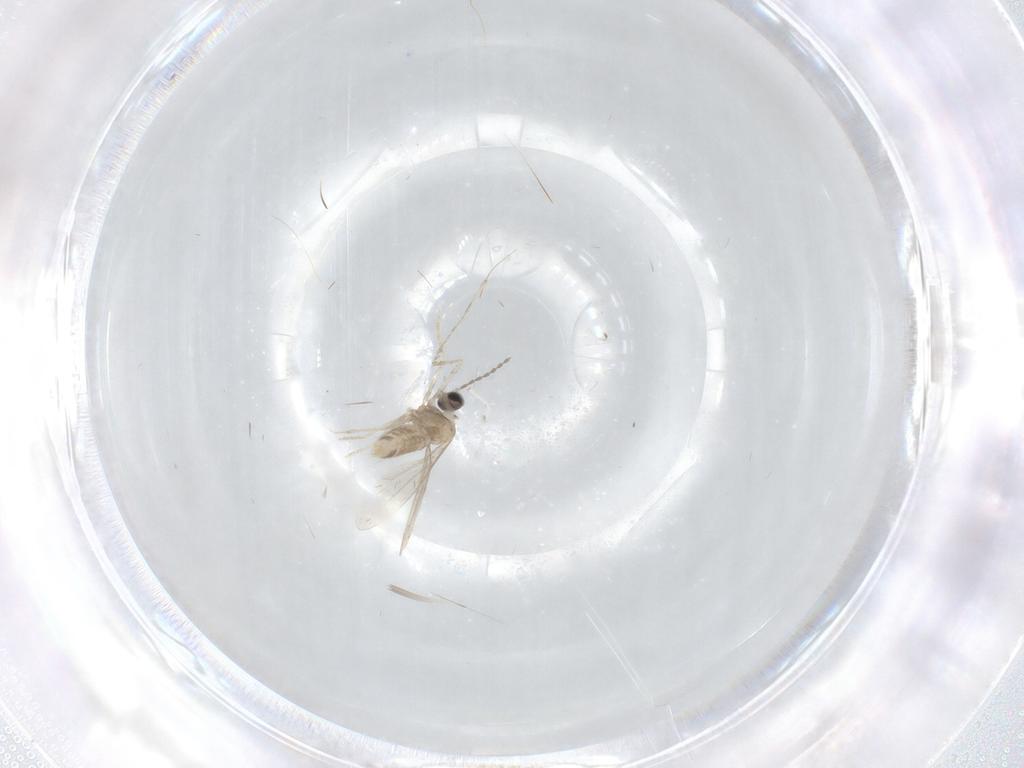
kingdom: Animalia
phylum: Arthropoda
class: Insecta
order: Diptera
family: Cecidomyiidae
